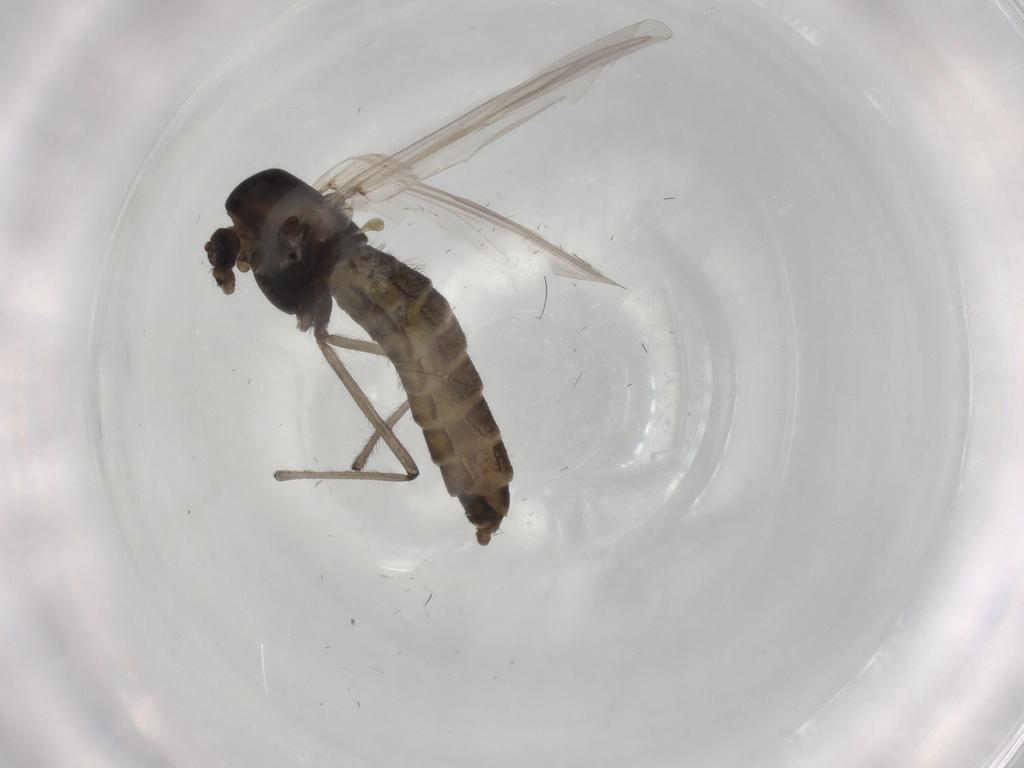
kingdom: Animalia
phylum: Arthropoda
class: Insecta
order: Diptera
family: Chironomidae
